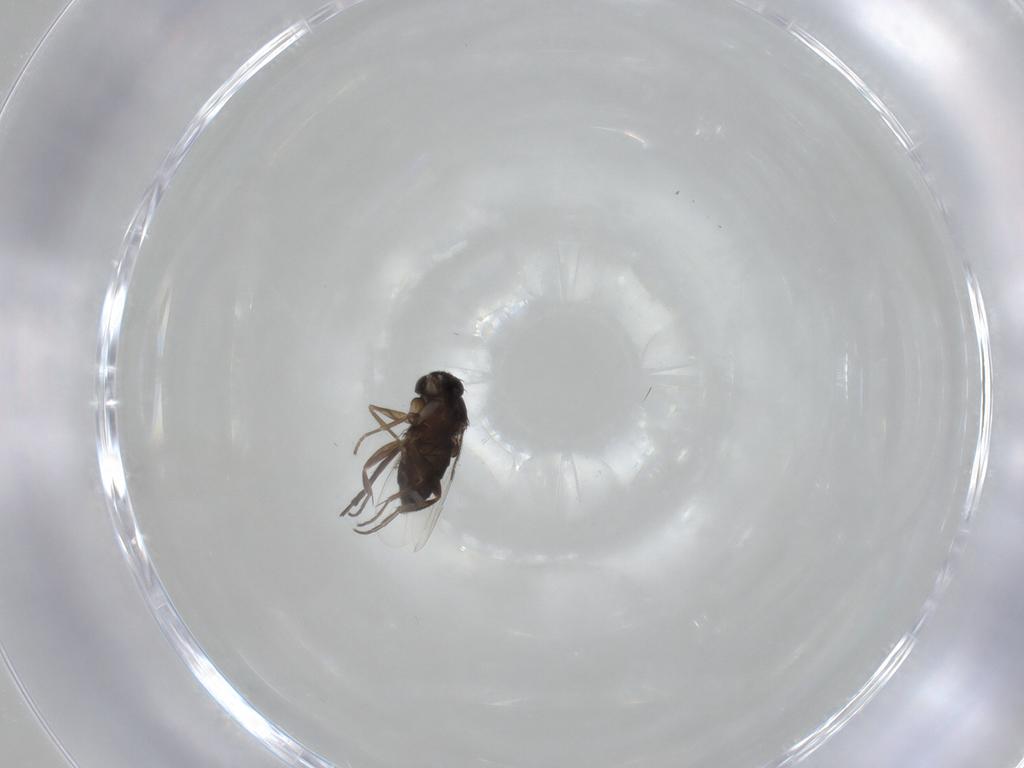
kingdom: Animalia
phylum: Arthropoda
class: Insecta
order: Diptera
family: Phoridae
